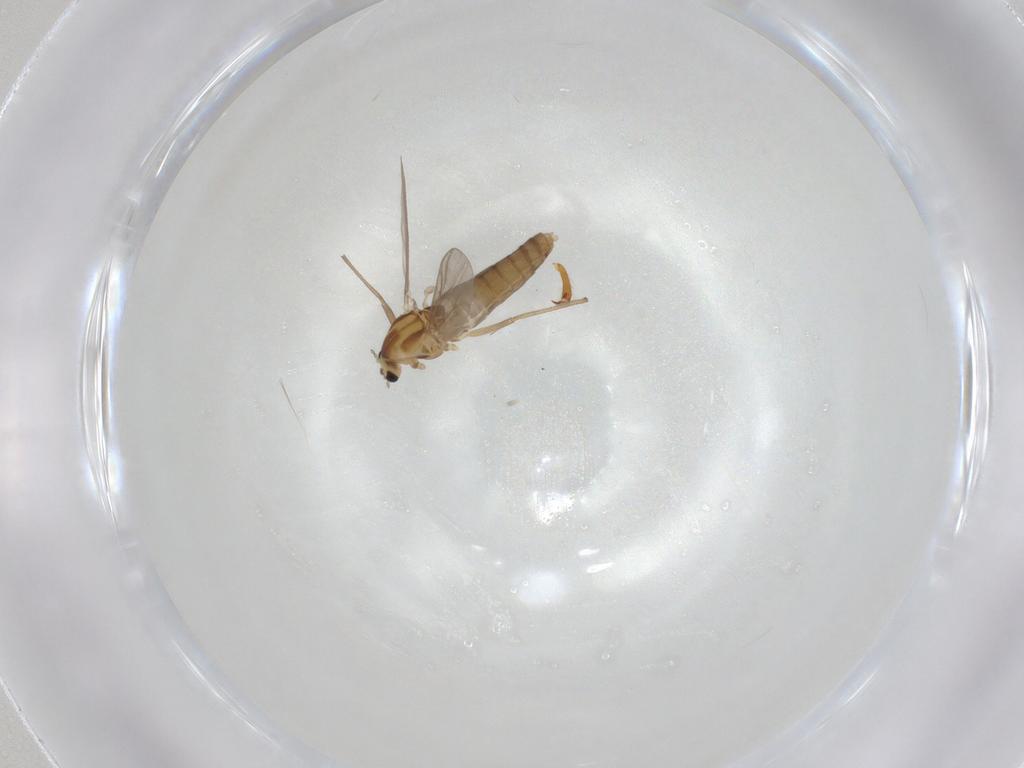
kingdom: Animalia
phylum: Arthropoda
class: Insecta
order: Diptera
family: Chironomidae
